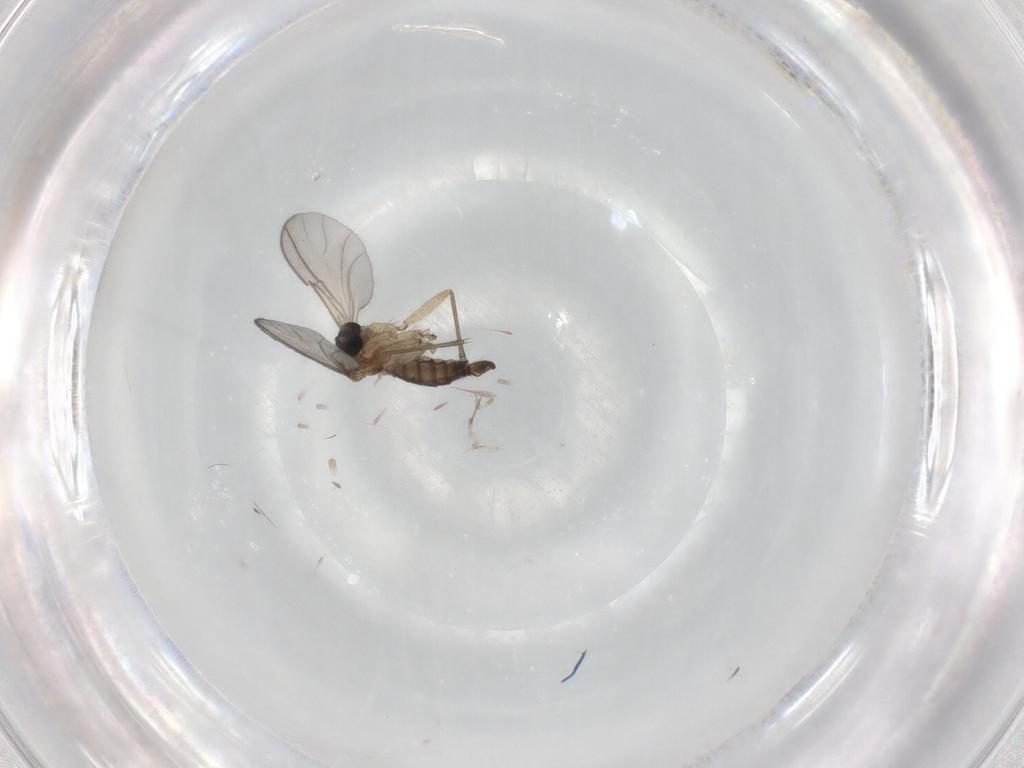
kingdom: Animalia
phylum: Arthropoda
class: Insecta
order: Diptera
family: Sciaridae
